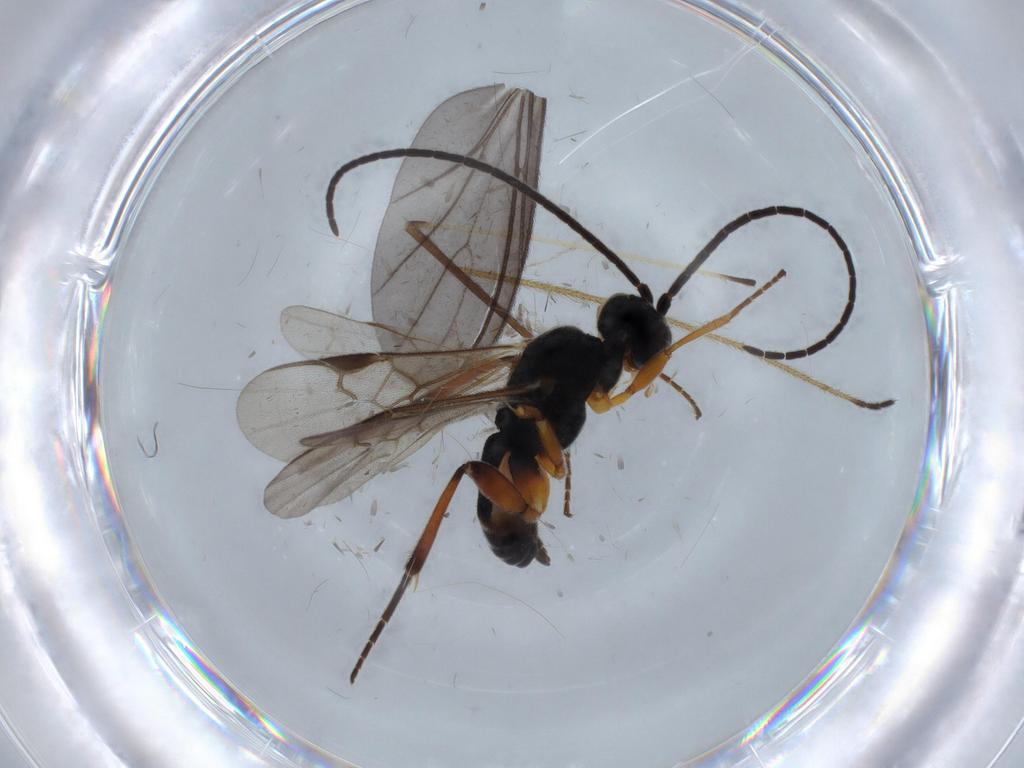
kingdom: Animalia
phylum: Arthropoda
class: Insecta
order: Hymenoptera
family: Braconidae
